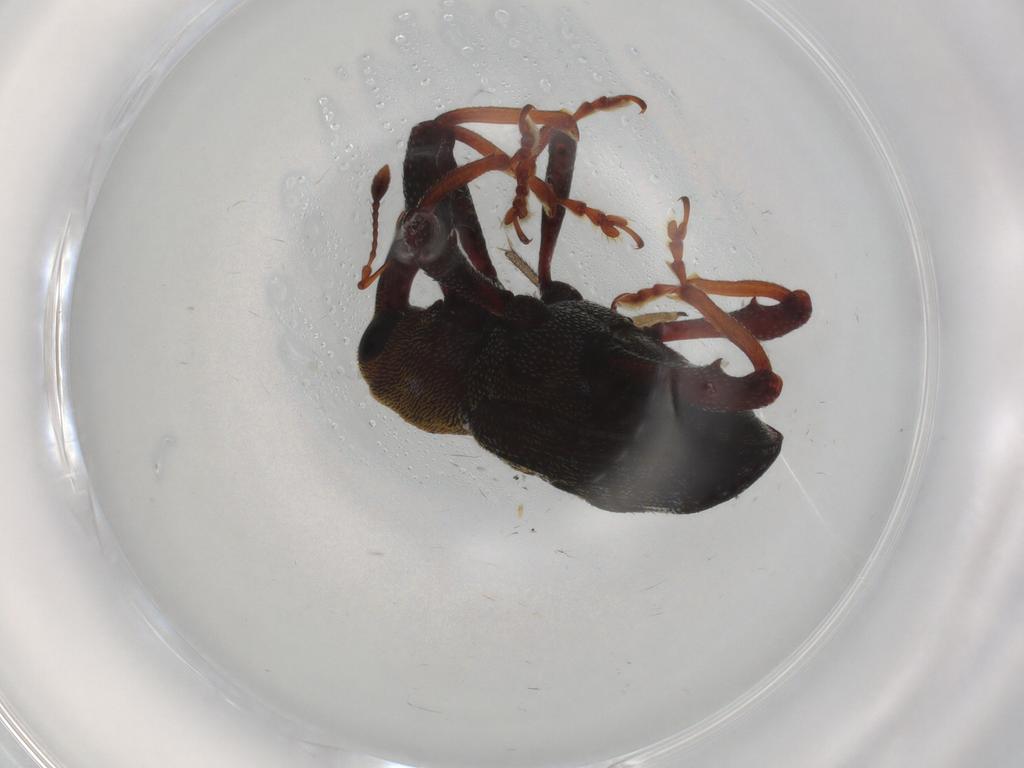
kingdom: Animalia
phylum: Arthropoda
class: Insecta
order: Coleoptera
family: Curculionidae
